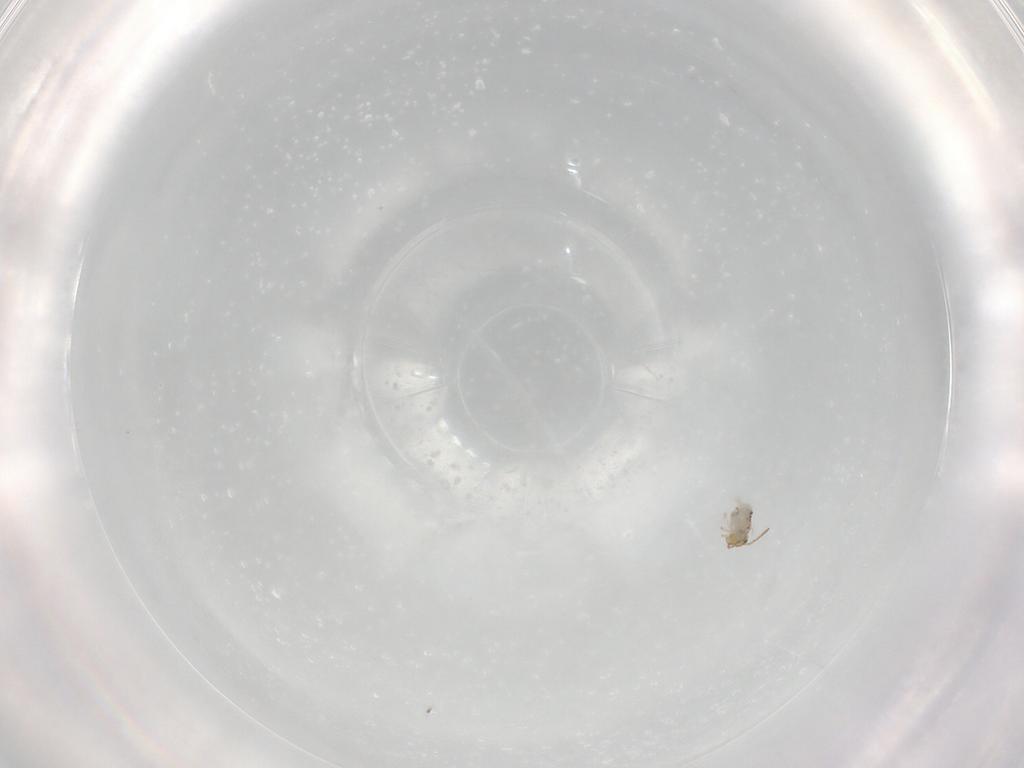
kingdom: Animalia
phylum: Arthropoda
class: Collembola
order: Symphypleona
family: Bourletiellidae
